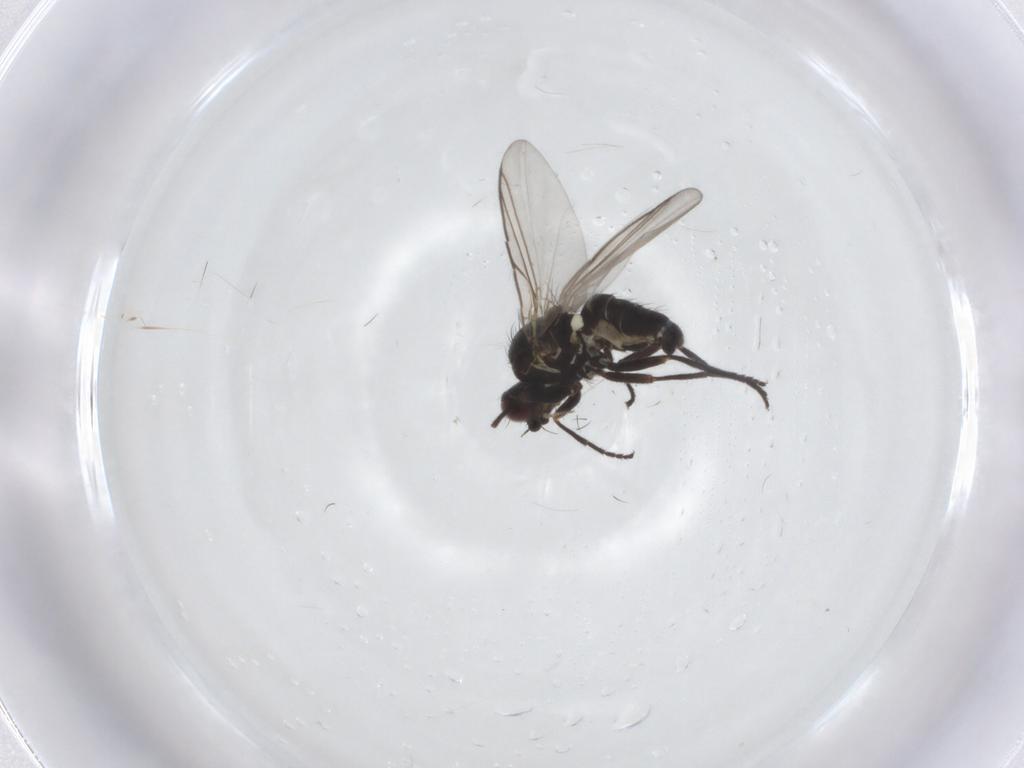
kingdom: Animalia
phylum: Arthropoda
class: Insecta
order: Diptera
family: Agromyzidae
